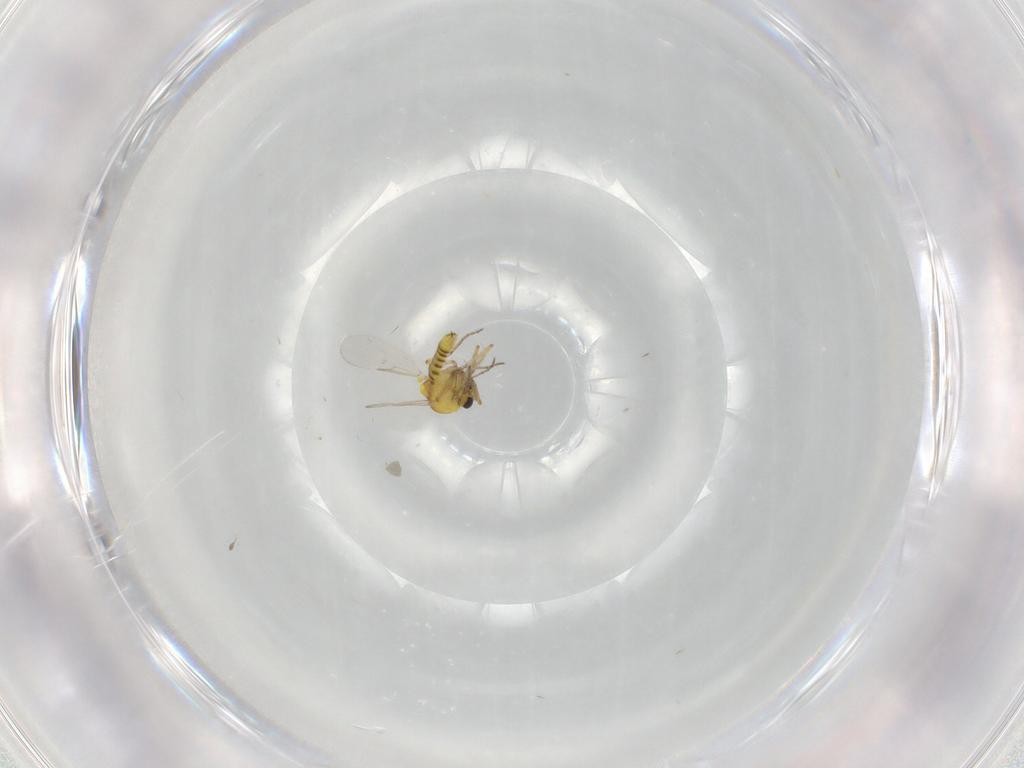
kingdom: Animalia
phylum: Arthropoda
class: Insecta
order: Diptera
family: Ceratopogonidae
